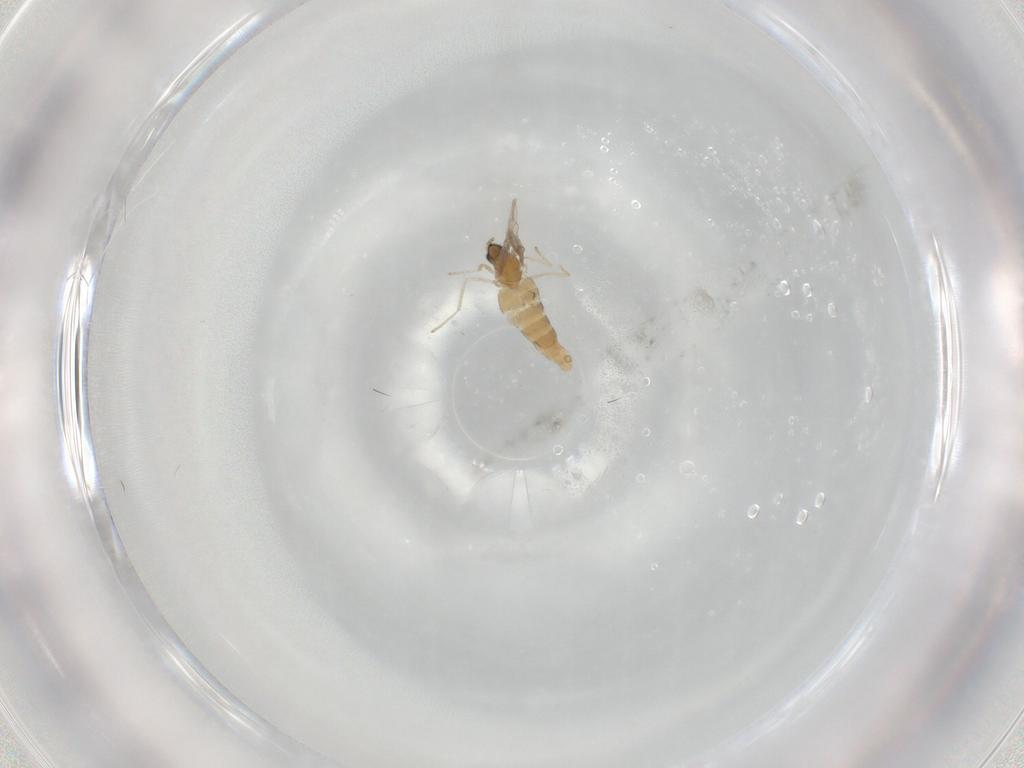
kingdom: Animalia
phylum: Arthropoda
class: Insecta
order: Diptera
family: Cecidomyiidae
